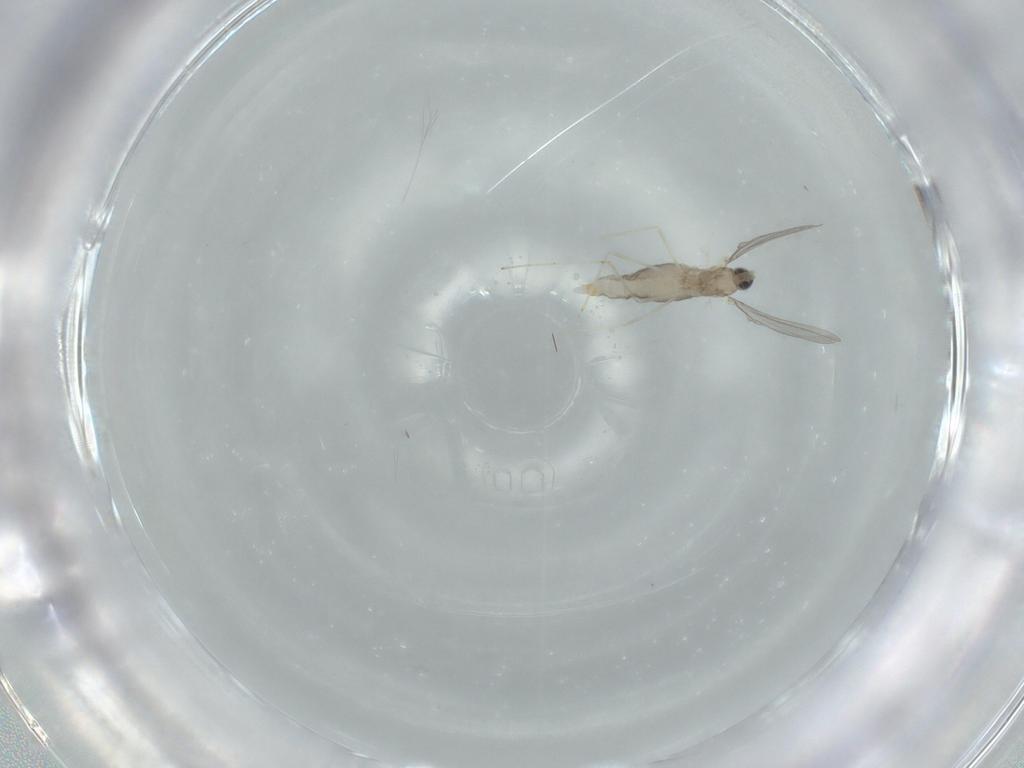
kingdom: Animalia
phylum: Arthropoda
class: Insecta
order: Diptera
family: Cecidomyiidae
